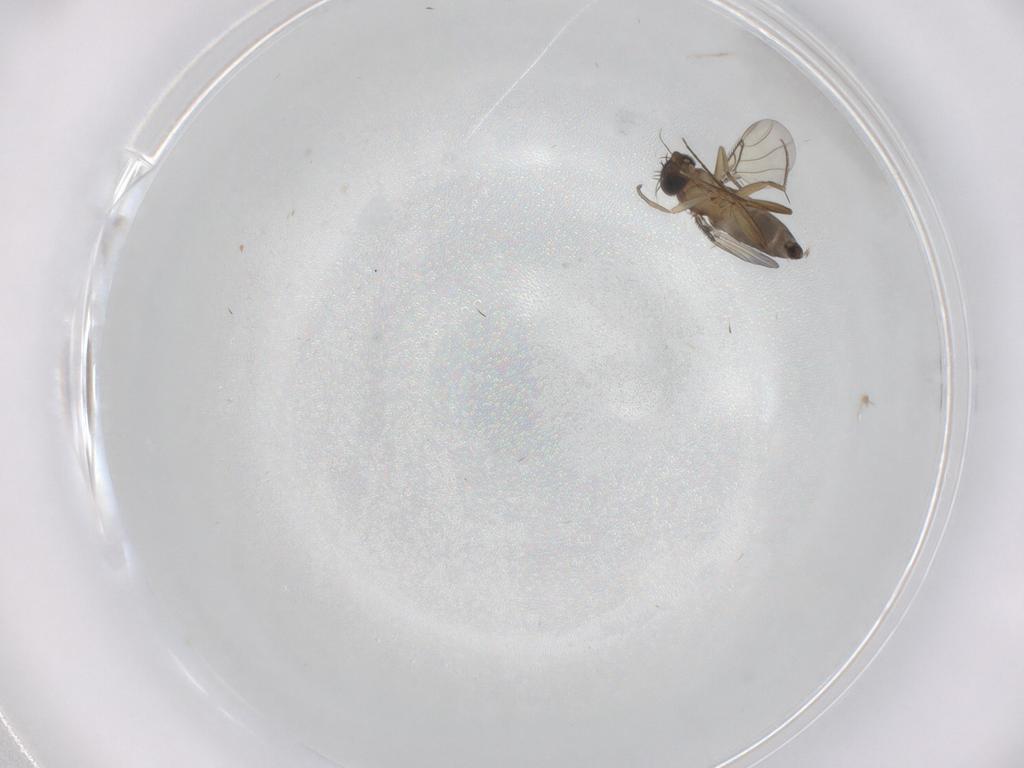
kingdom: Animalia
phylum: Arthropoda
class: Insecta
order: Diptera
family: Phoridae
